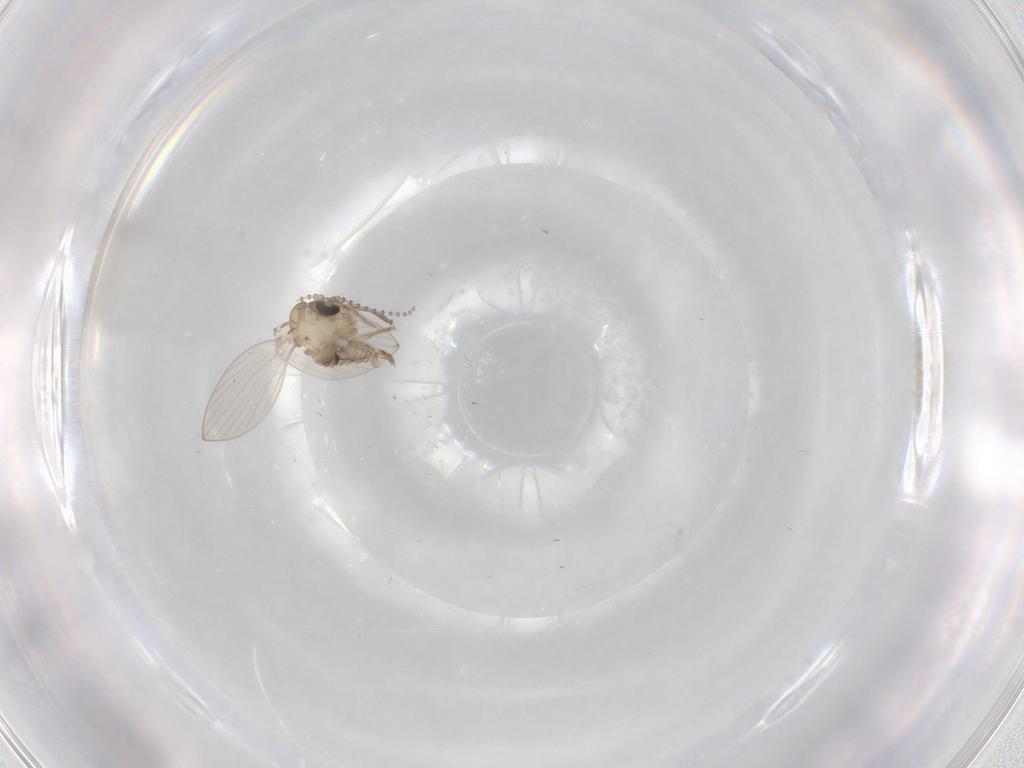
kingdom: Animalia
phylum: Arthropoda
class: Insecta
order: Diptera
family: Psychodidae
